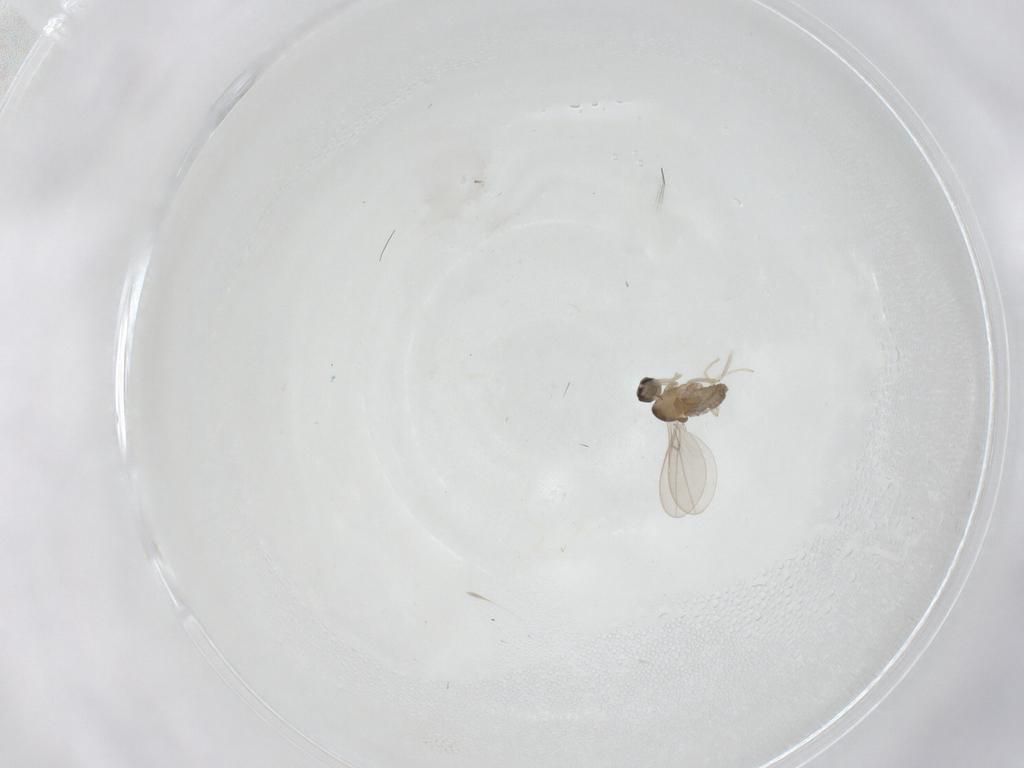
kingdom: Animalia
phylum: Arthropoda
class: Insecta
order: Diptera
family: Cecidomyiidae
